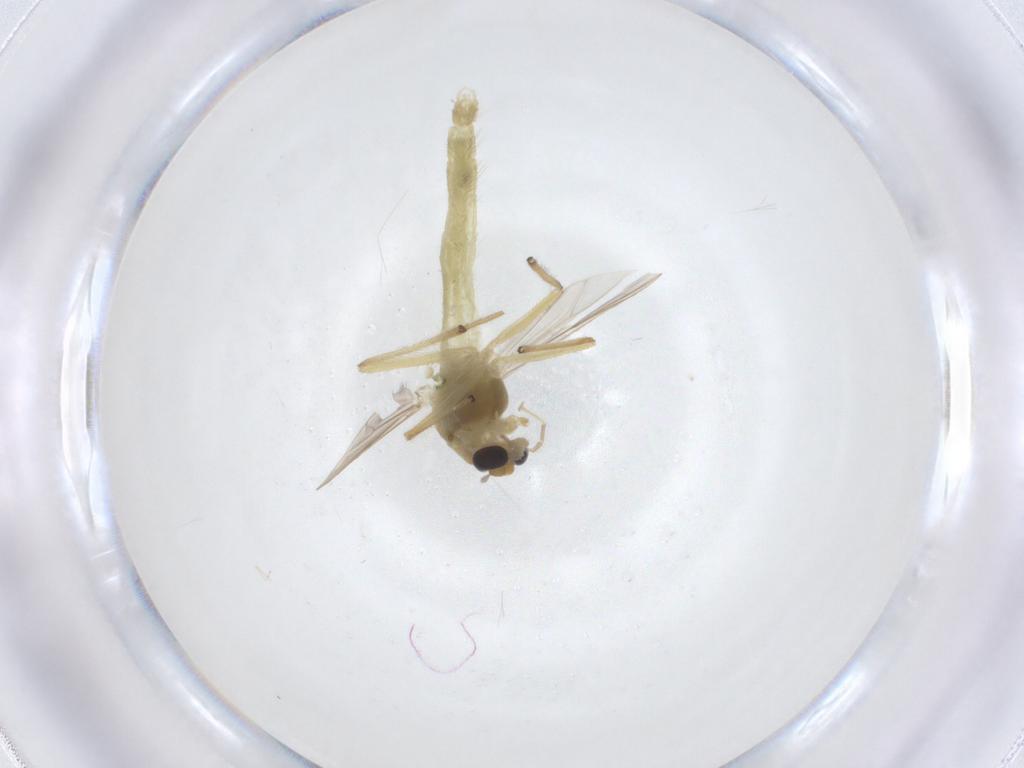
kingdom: Animalia
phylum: Arthropoda
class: Insecta
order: Diptera
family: Chironomidae
